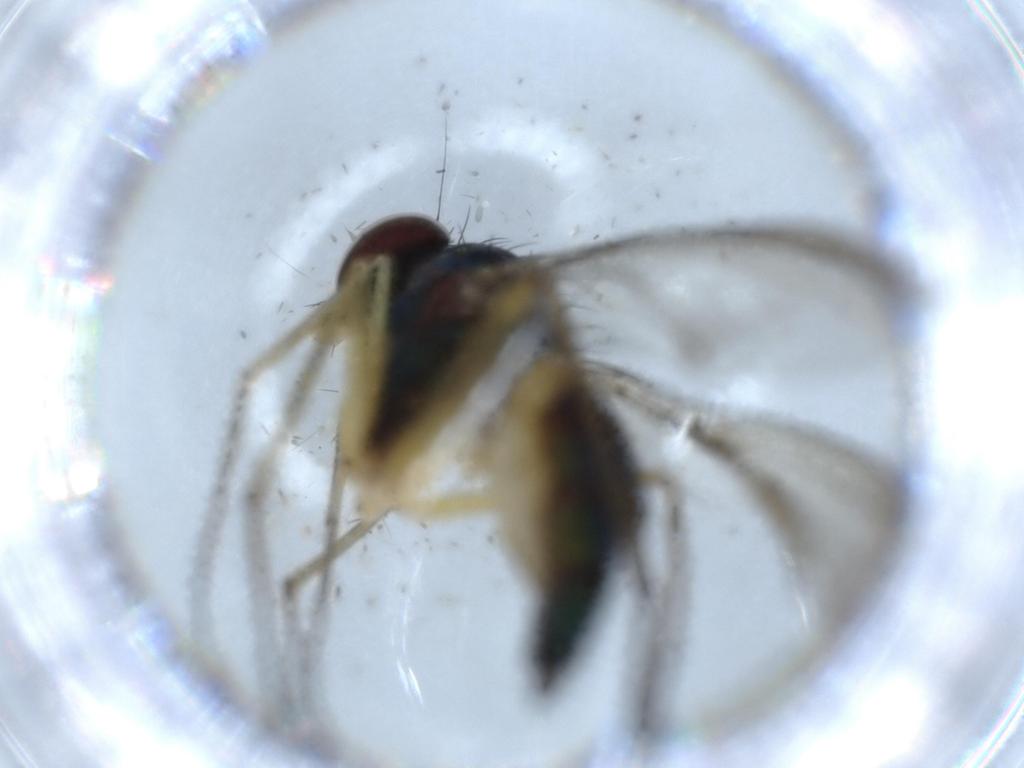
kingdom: Animalia
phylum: Arthropoda
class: Insecta
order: Diptera
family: Dolichopodidae
